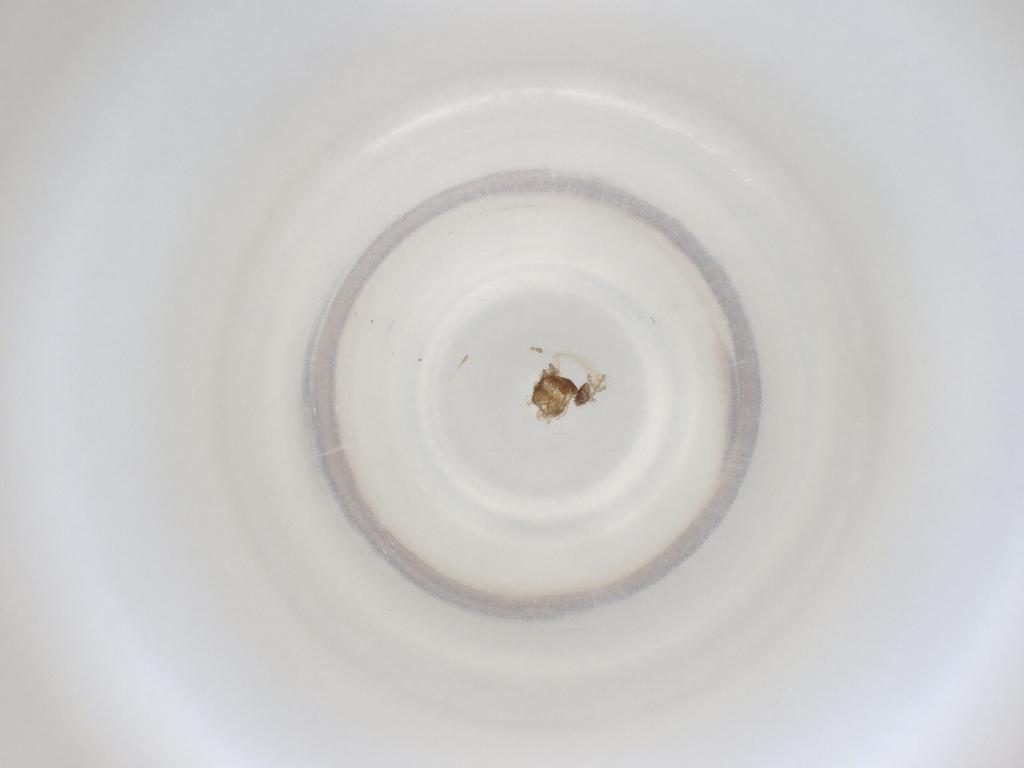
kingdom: Animalia
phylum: Arthropoda
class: Insecta
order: Diptera
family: Cecidomyiidae
